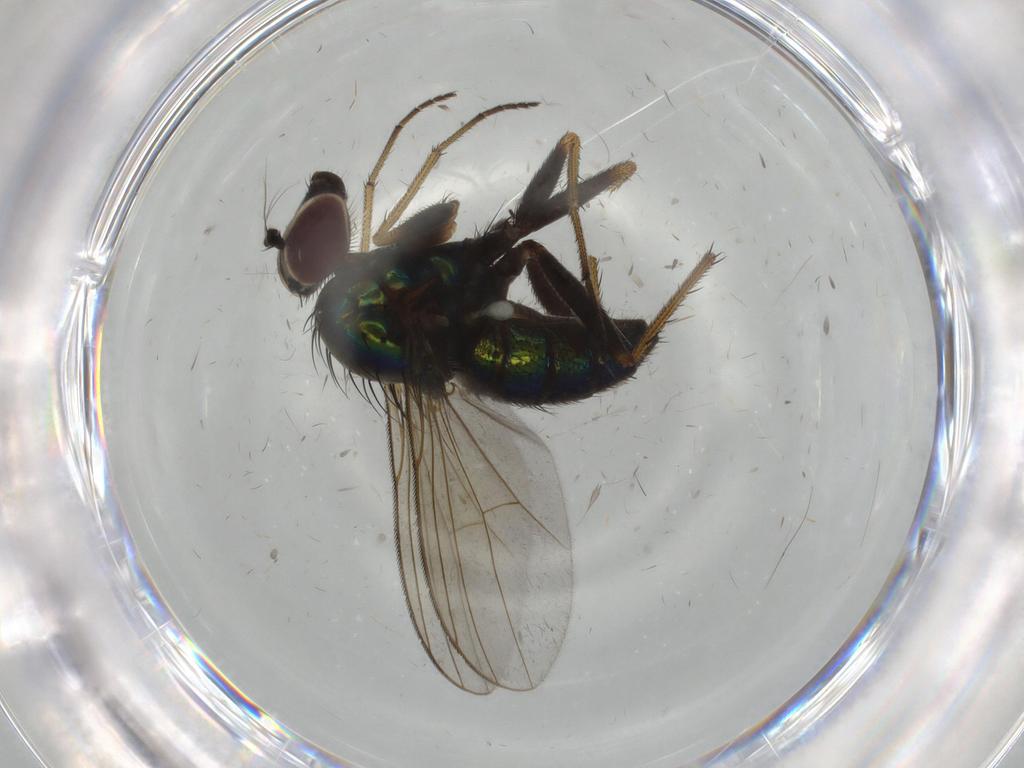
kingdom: Animalia
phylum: Arthropoda
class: Insecta
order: Diptera
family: Dolichopodidae
